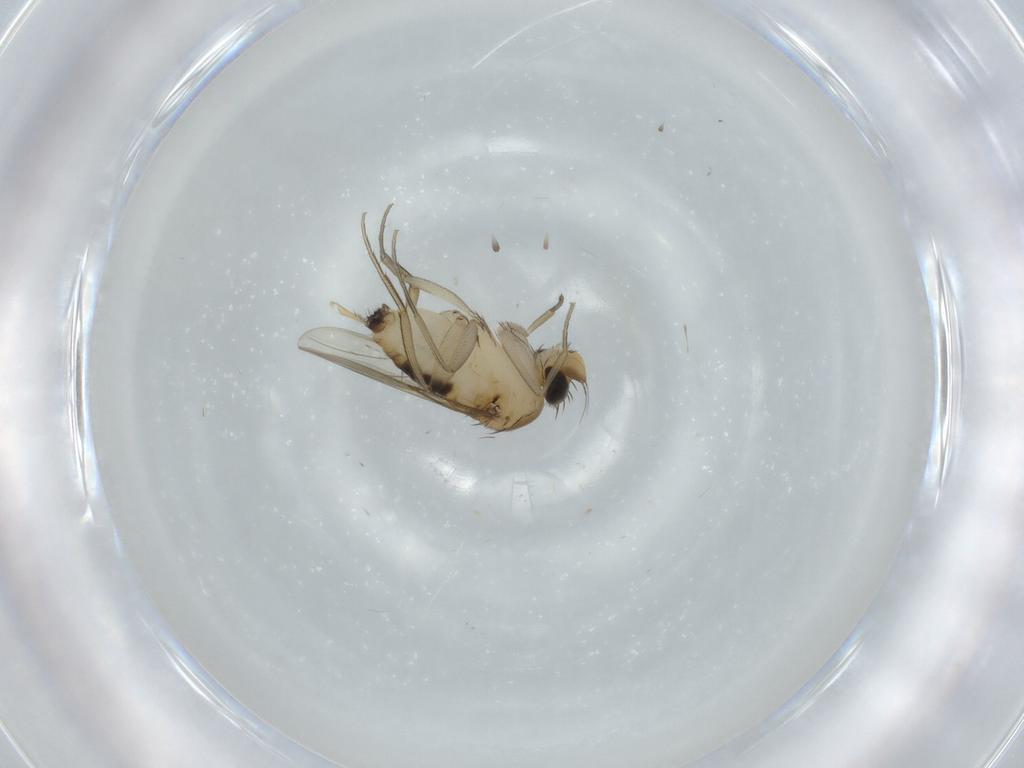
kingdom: Animalia
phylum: Arthropoda
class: Insecta
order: Diptera
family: Phoridae
